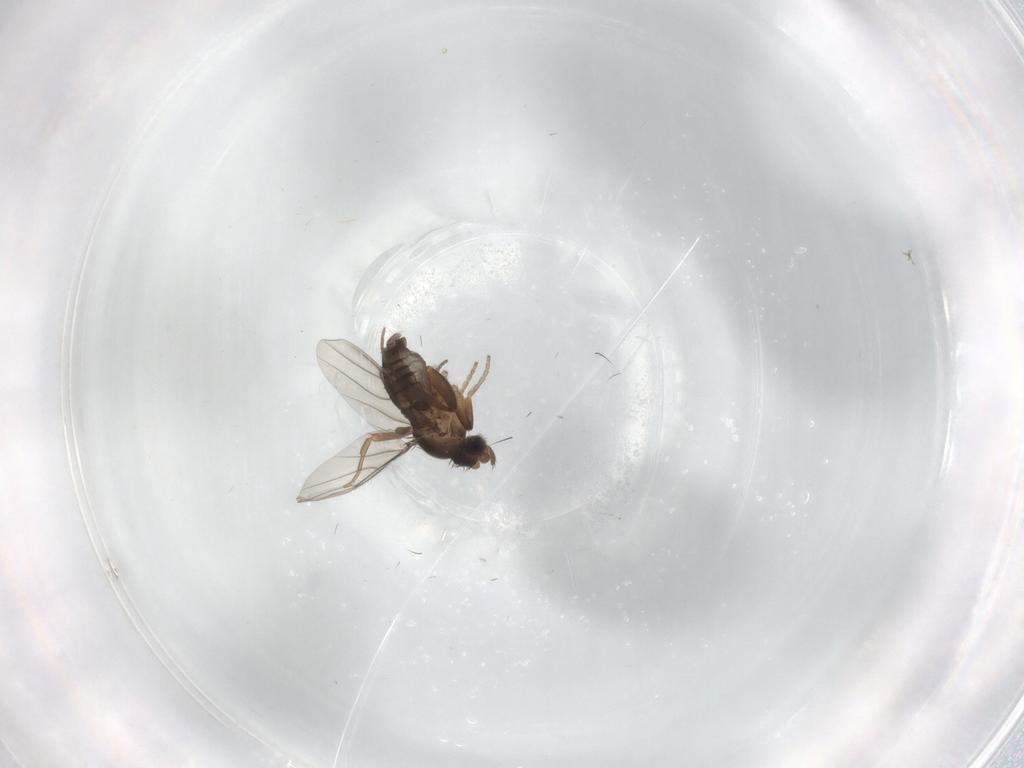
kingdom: Animalia
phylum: Arthropoda
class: Insecta
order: Diptera
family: Phoridae
